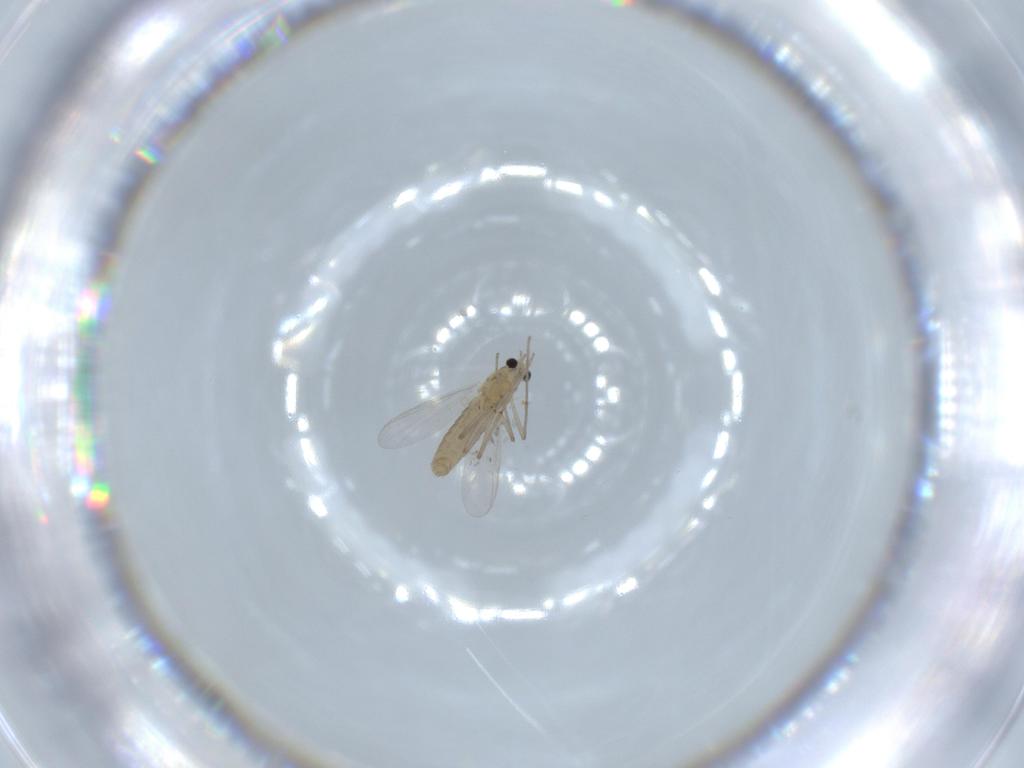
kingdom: Animalia
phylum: Arthropoda
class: Insecta
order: Diptera
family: Chironomidae
